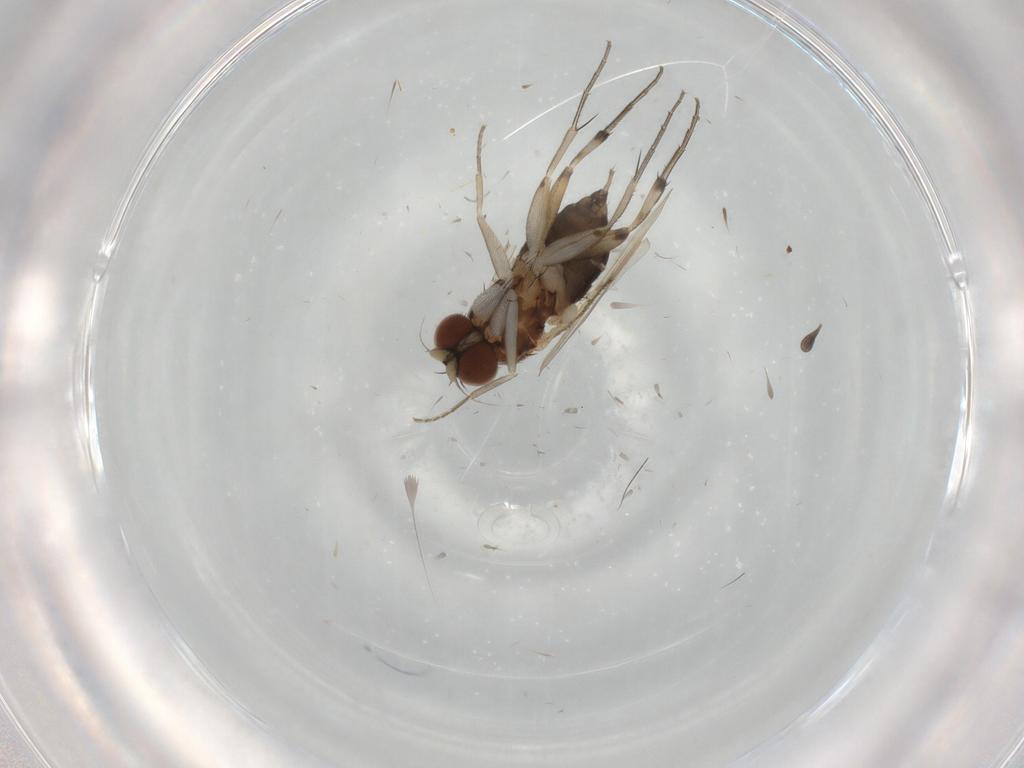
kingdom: Animalia
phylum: Arthropoda
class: Insecta
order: Diptera
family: Phoridae
